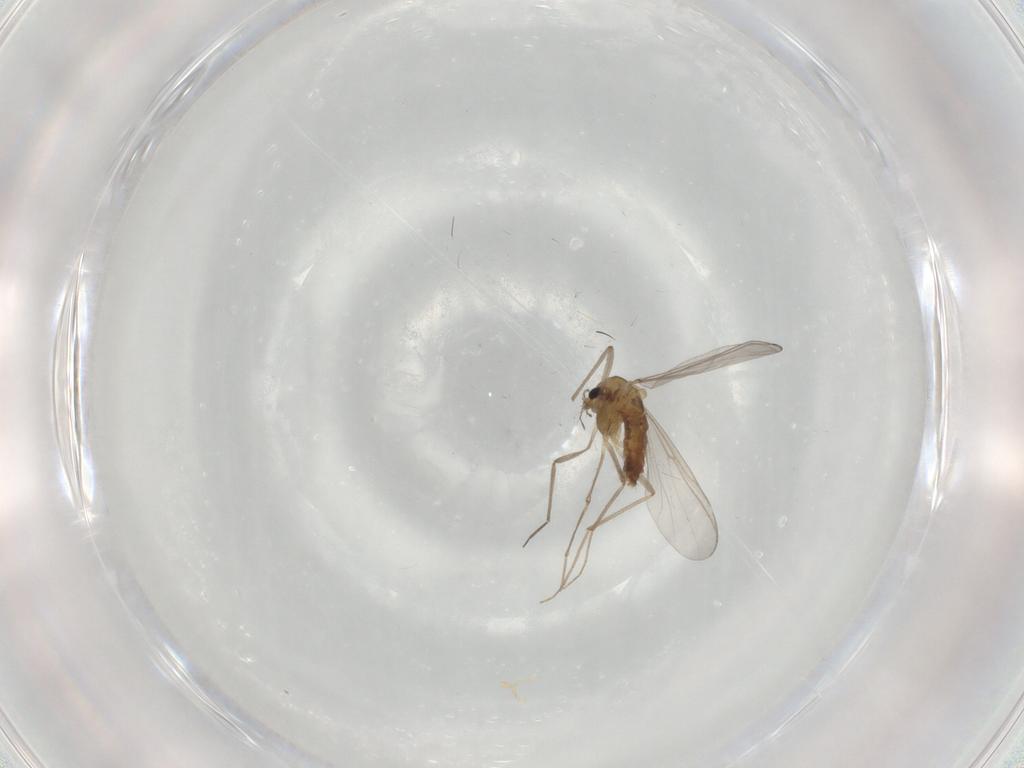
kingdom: Animalia
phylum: Arthropoda
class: Insecta
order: Diptera
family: Chironomidae
